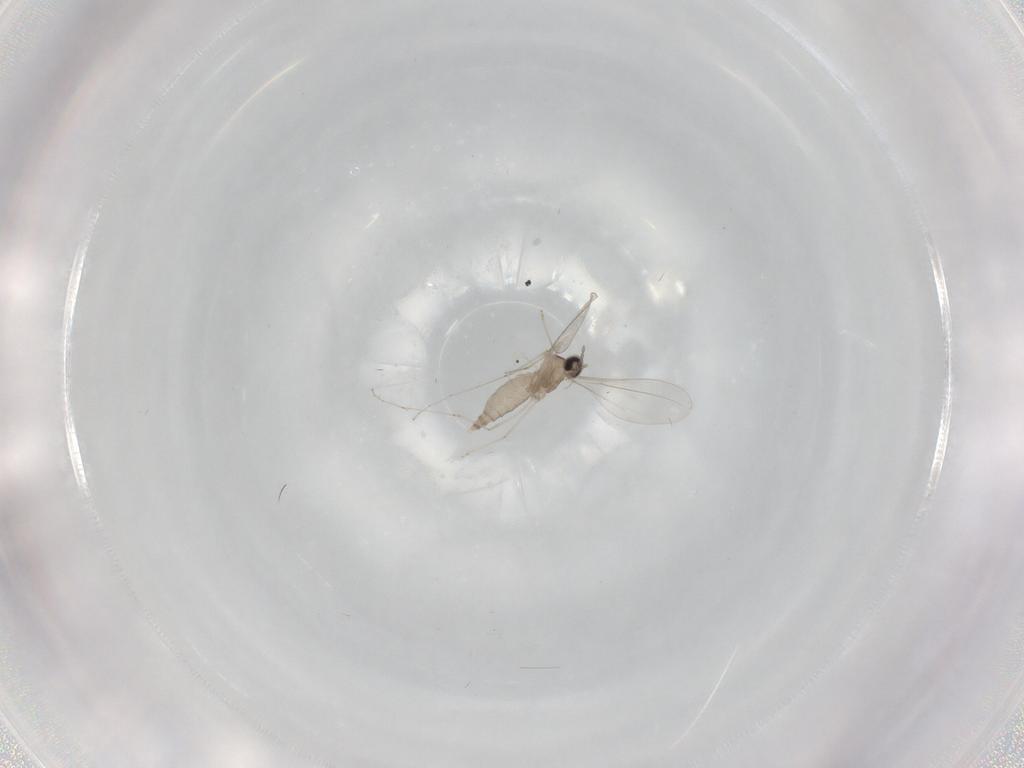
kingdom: Animalia
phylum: Arthropoda
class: Insecta
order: Diptera
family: Cecidomyiidae
